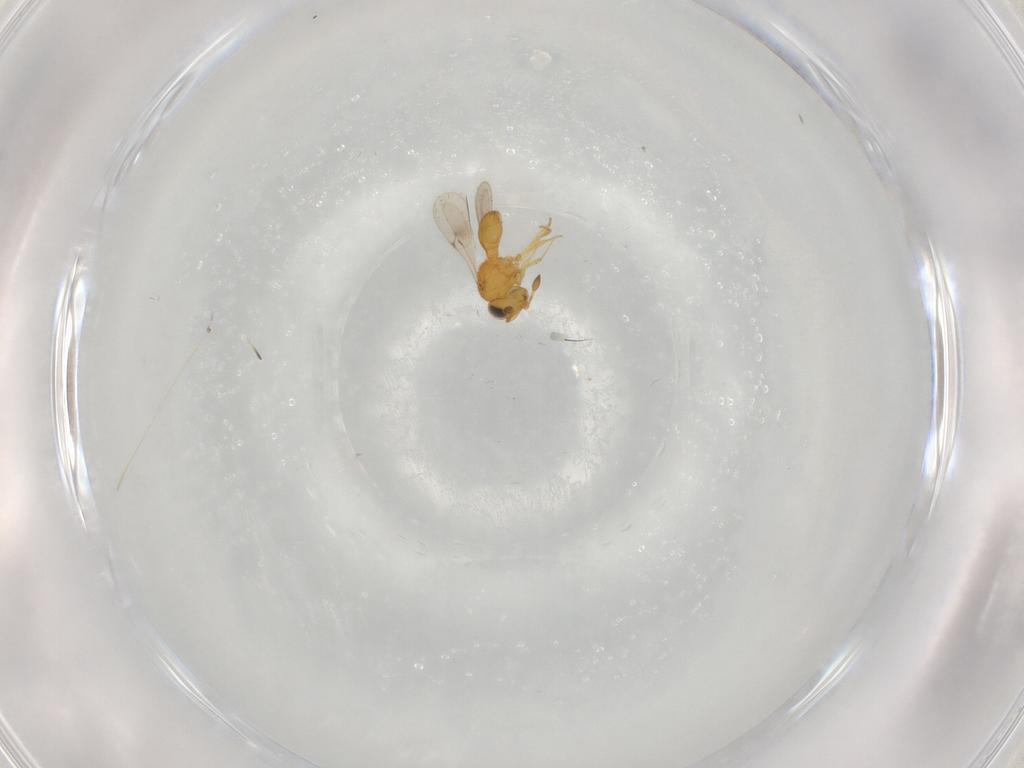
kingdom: Animalia
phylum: Arthropoda
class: Insecta
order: Hymenoptera
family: Scelionidae
